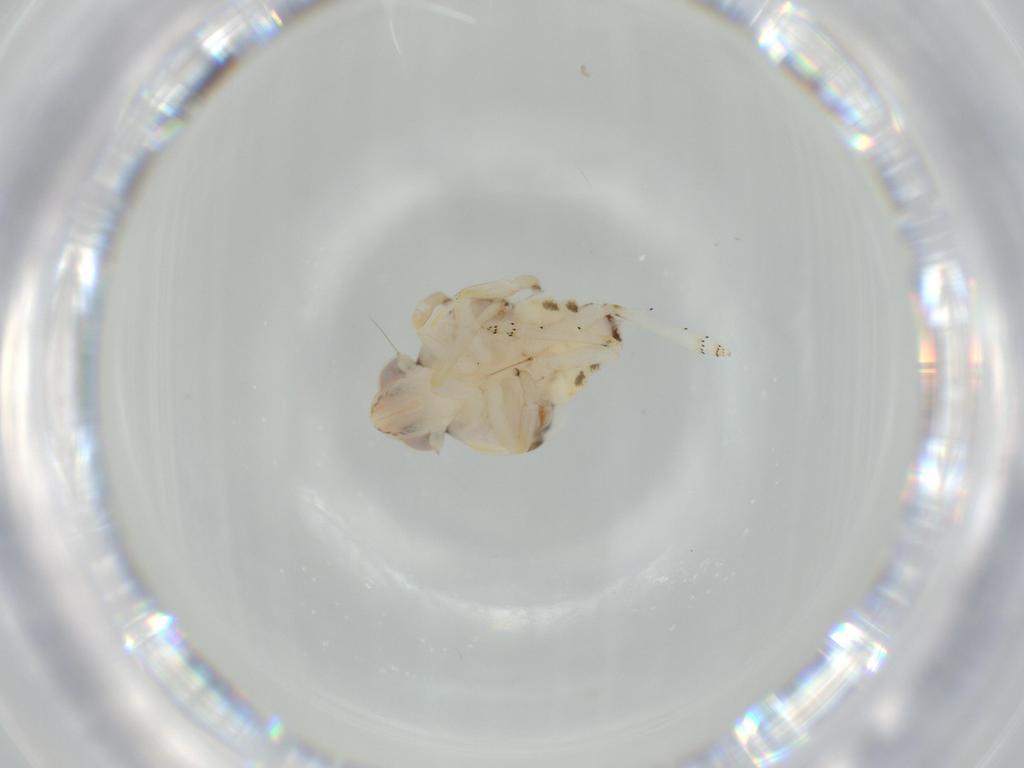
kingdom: Animalia
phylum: Arthropoda
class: Insecta
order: Hemiptera
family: Nogodinidae
